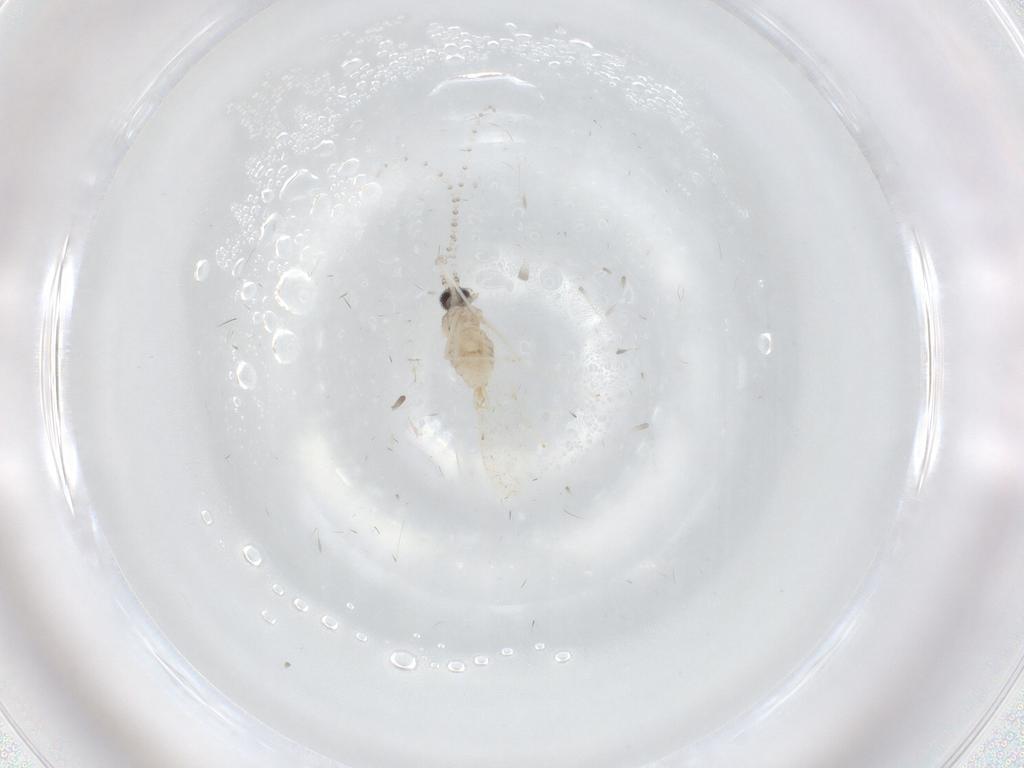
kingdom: Animalia
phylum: Arthropoda
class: Insecta
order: Diptera
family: Cecidomyiidae
